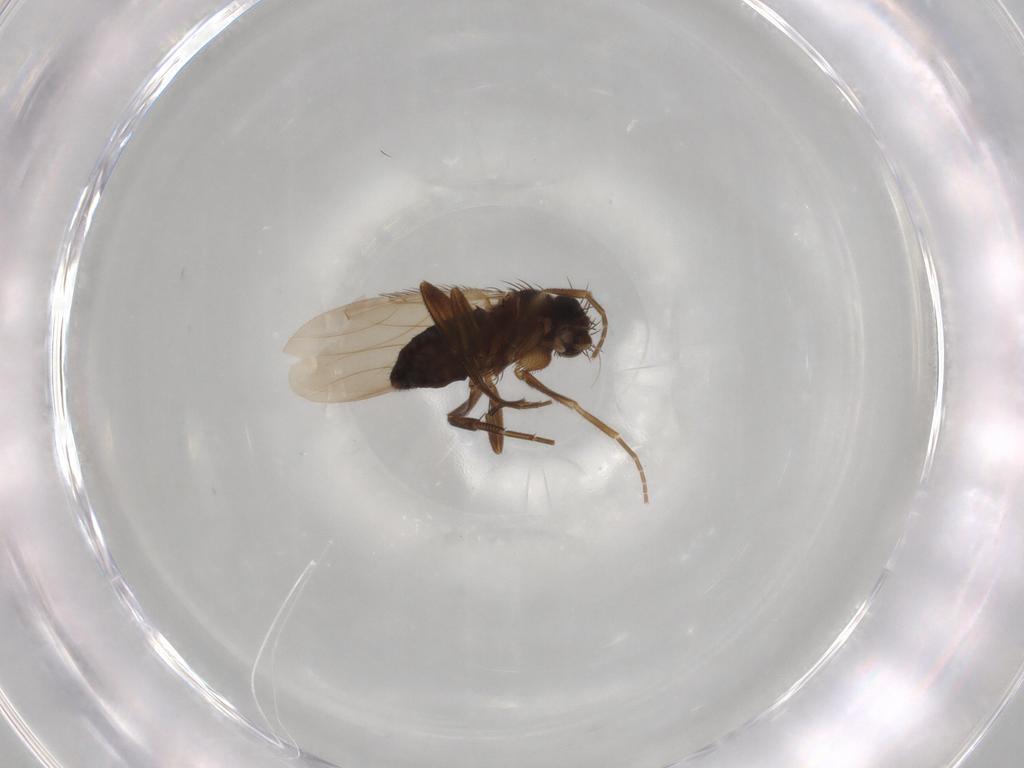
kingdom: Animalia
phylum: Arthropoda
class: Insecta
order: Diptera
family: Phoridae
